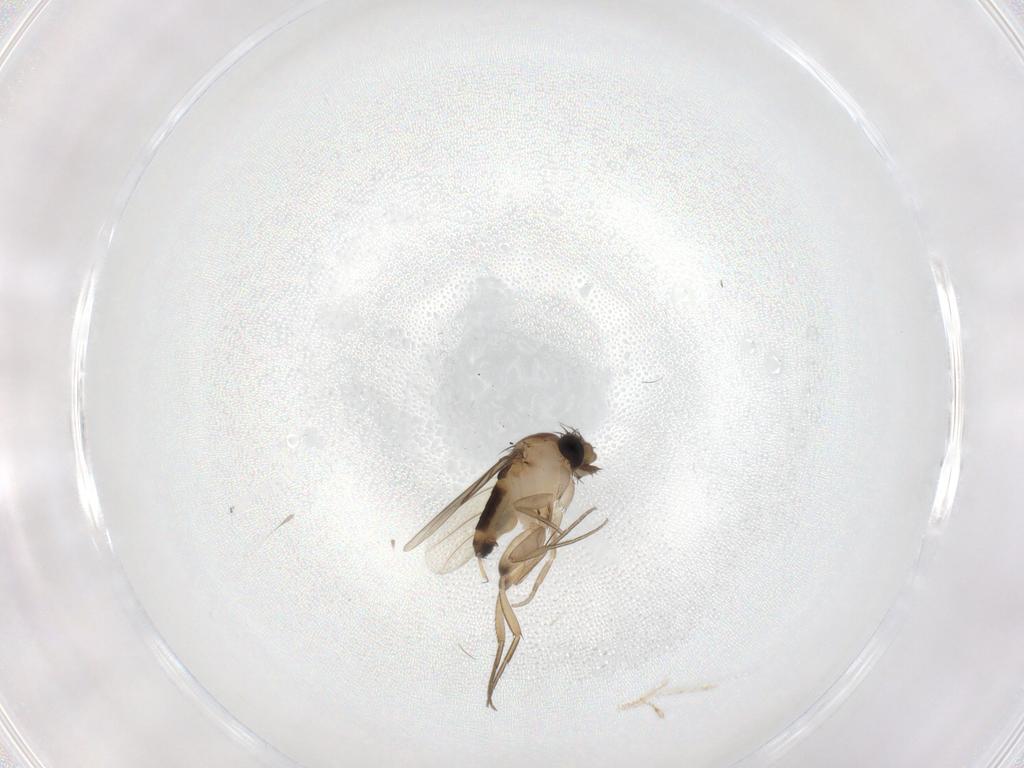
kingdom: Animalia
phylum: Arthropoda
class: Insecta
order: Diptera
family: Phoridae
